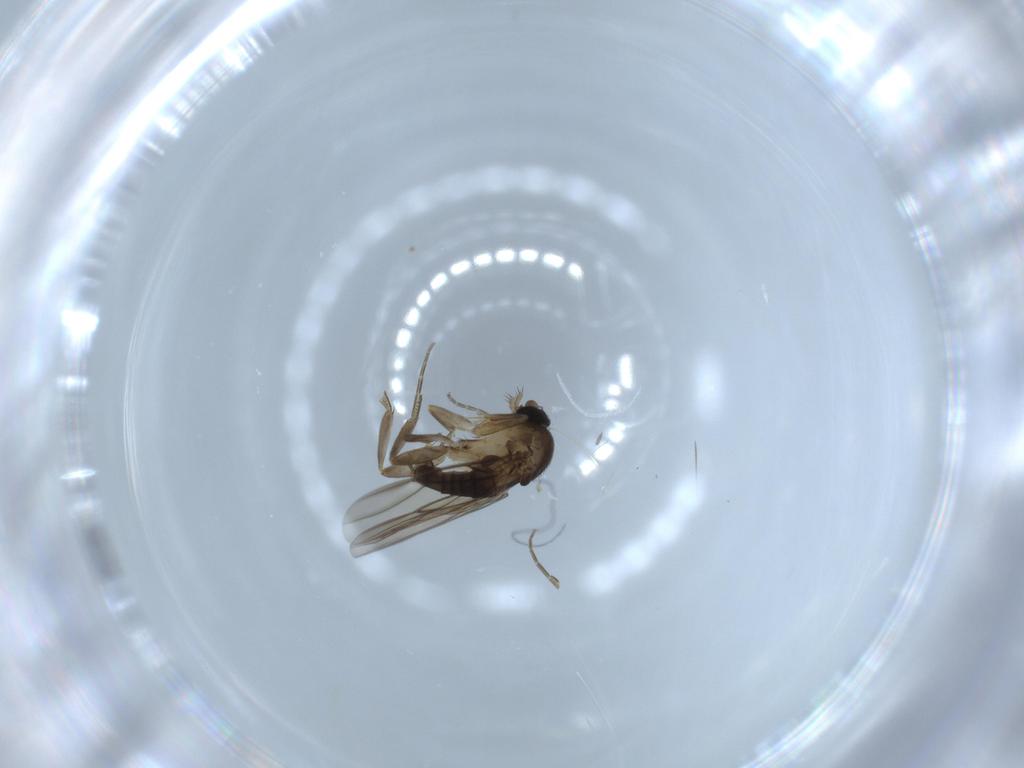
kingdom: Animalia
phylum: Arthropoda
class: Insecta
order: Diptera
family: Phoridae
